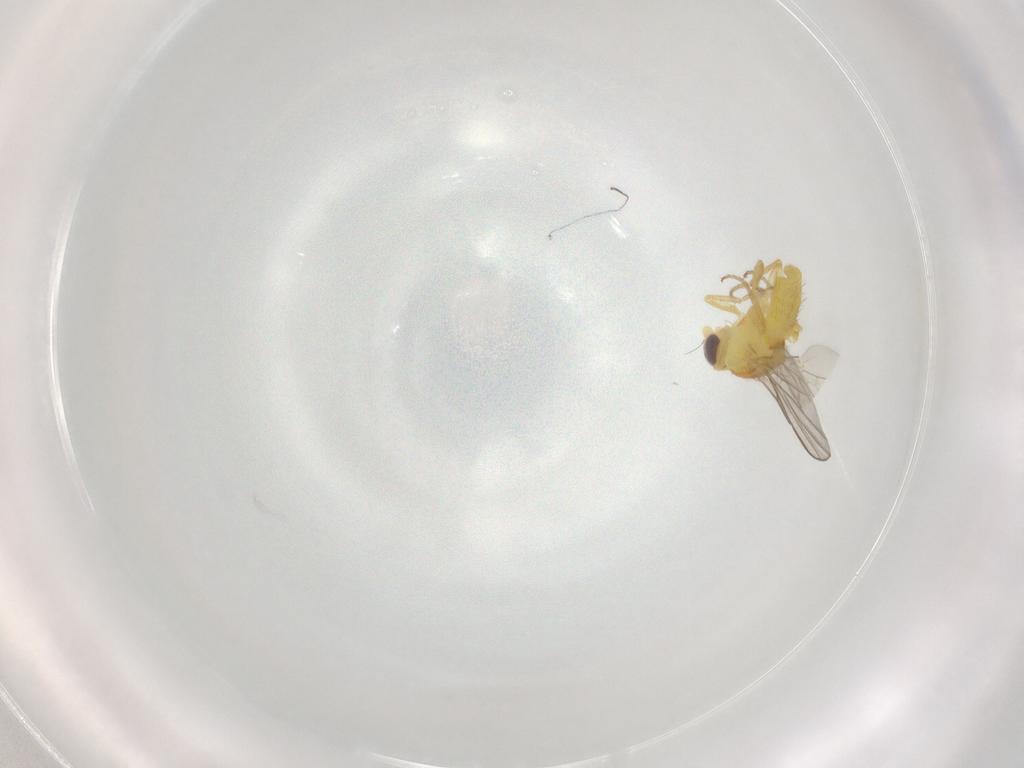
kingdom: Animalia
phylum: Arthropoda
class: Insecta
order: Diptera
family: Agromyzidae
